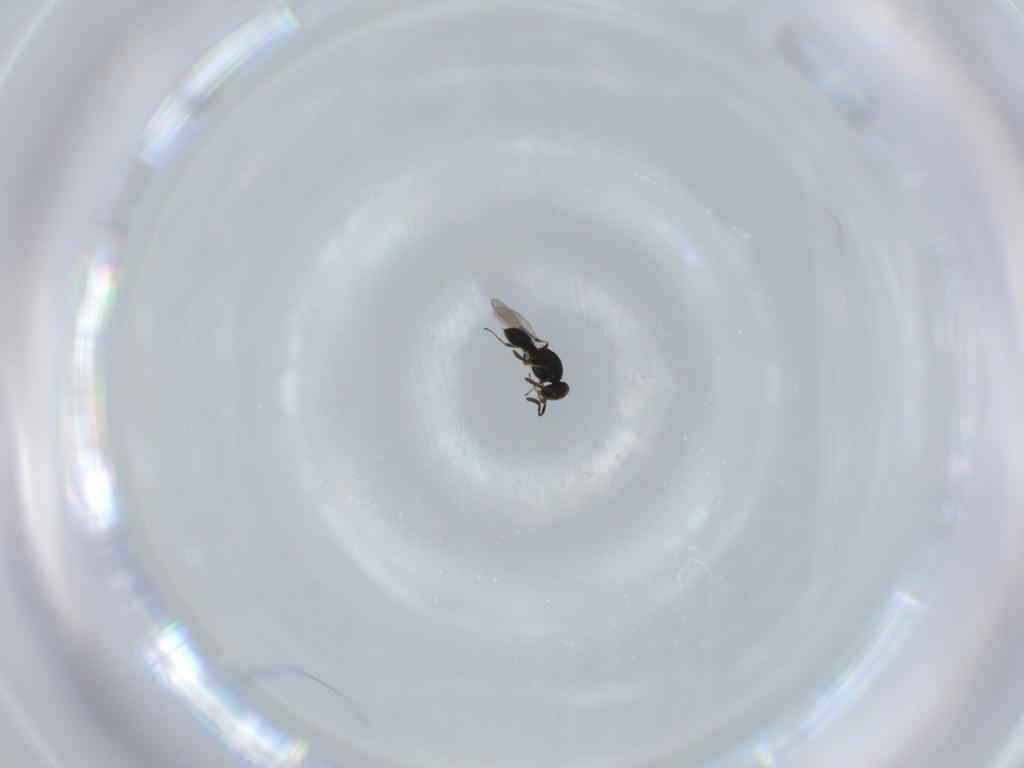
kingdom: Animalia
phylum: Arthropoda
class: Insecta
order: Hymenoptera
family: Platygastridae
